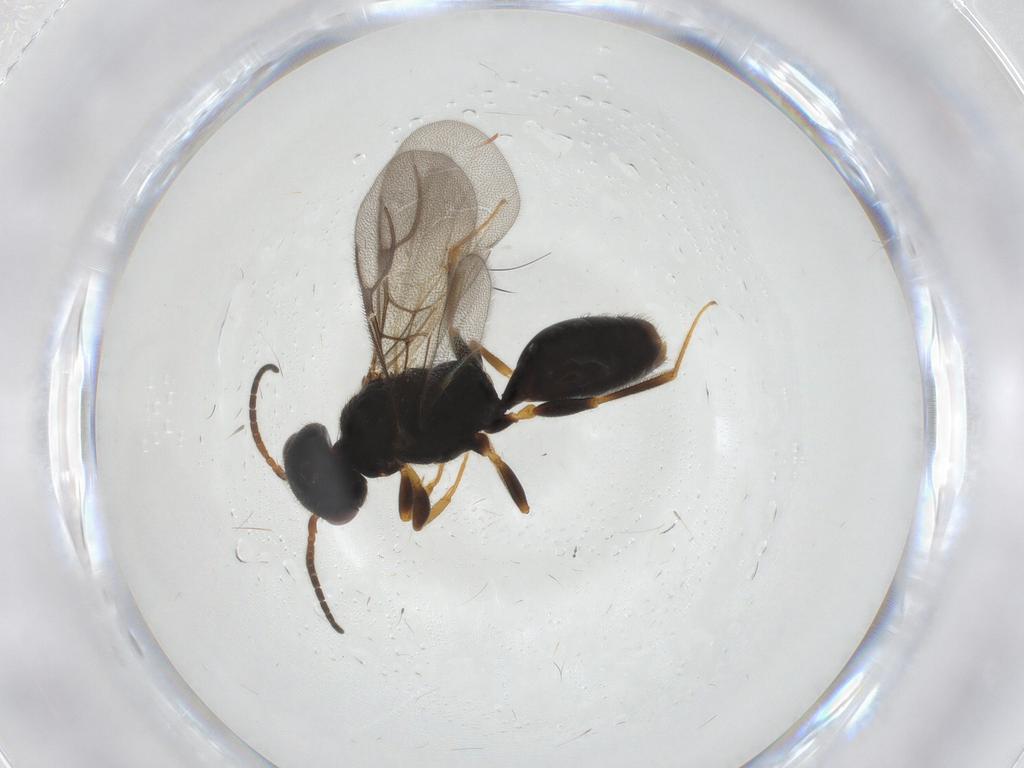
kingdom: Animalia
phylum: Arthropoda
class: Insecta
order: Hymenoptera
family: Bethylidae
